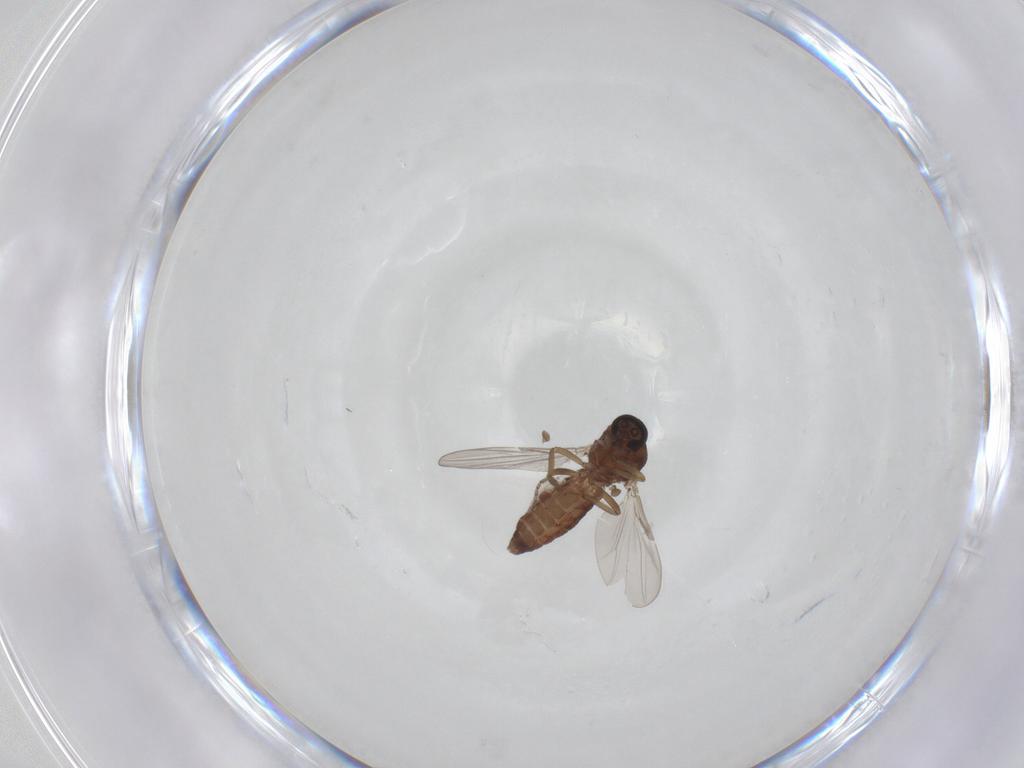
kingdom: Animalia
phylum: Arthropoda
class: Insecta
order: Diptera
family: Ceratopogonidae
